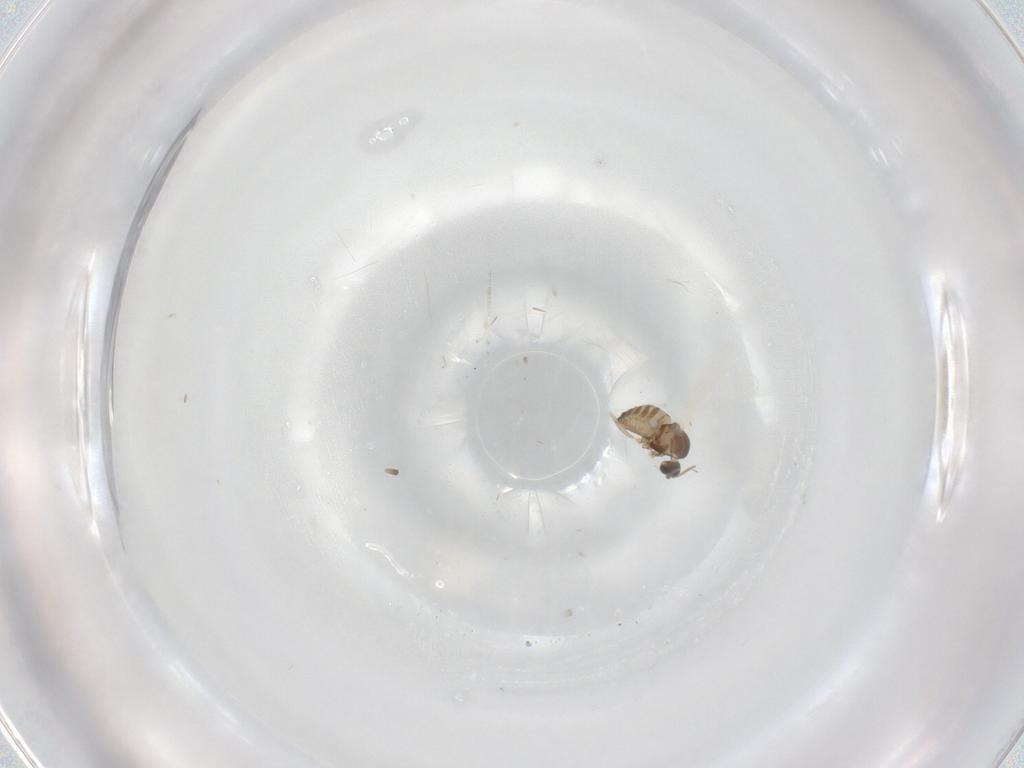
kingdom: Animalia
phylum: Arthropoda
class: Insecta
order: Diptera
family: Cecidomyiidae
